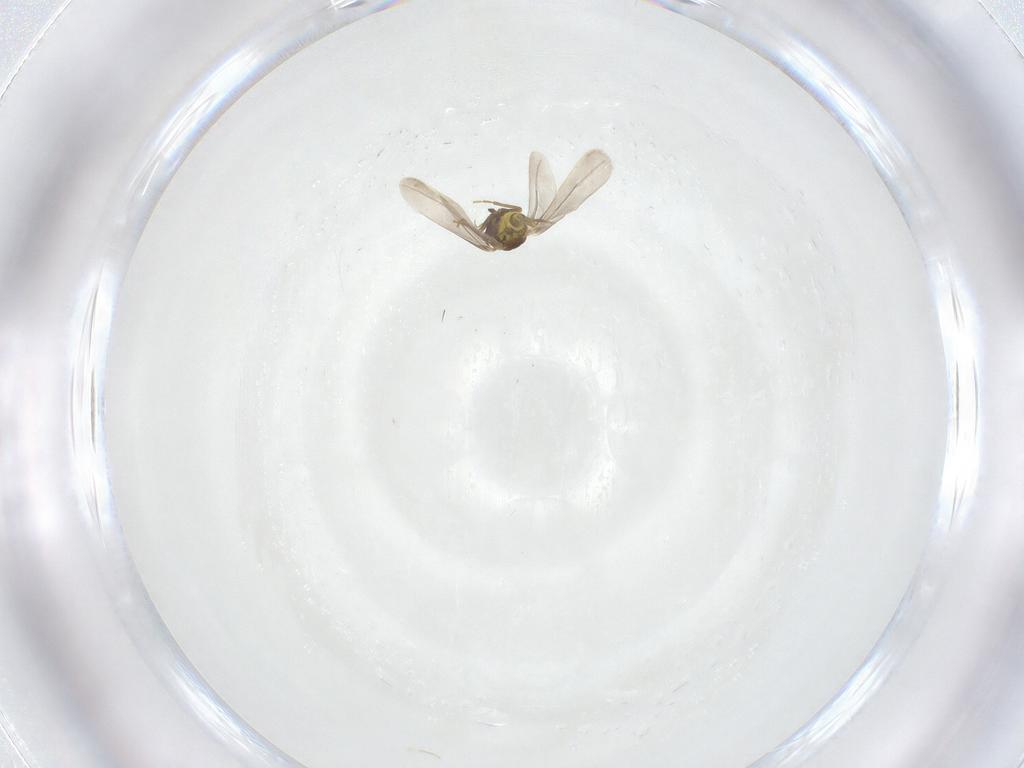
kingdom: Animalia
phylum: Arthropoda
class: Insecta
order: Hemiptera
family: Aleyrodidae
